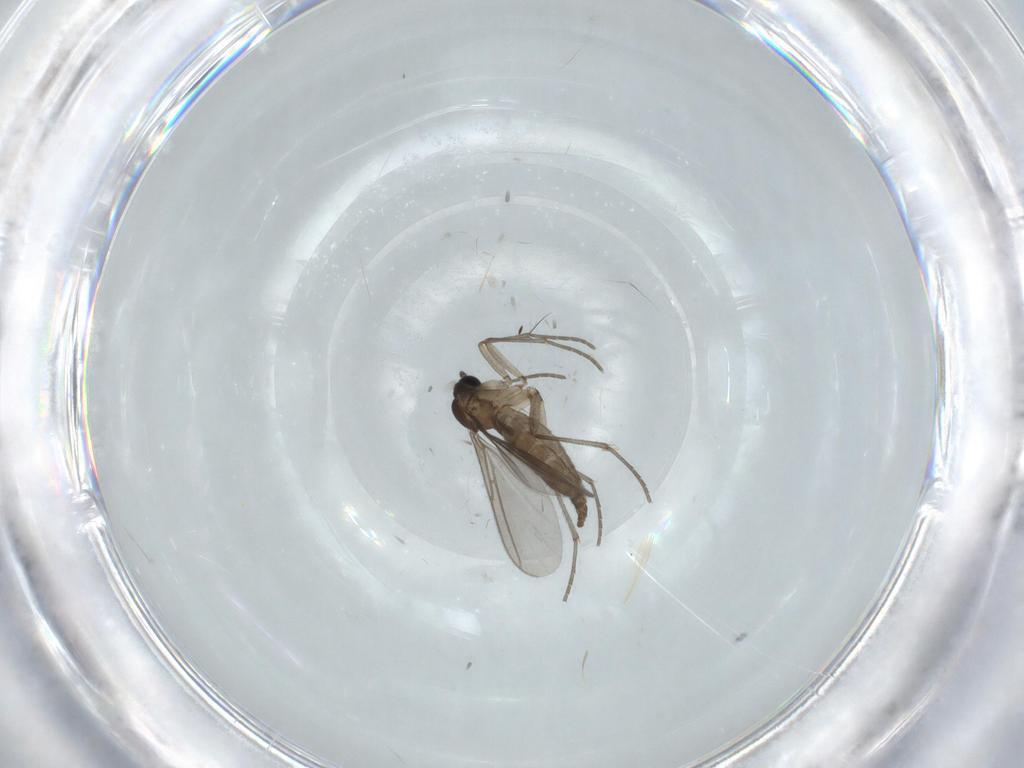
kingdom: Animalia
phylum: Arthropoda
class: Insecta
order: Diptera
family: Sciaridae
